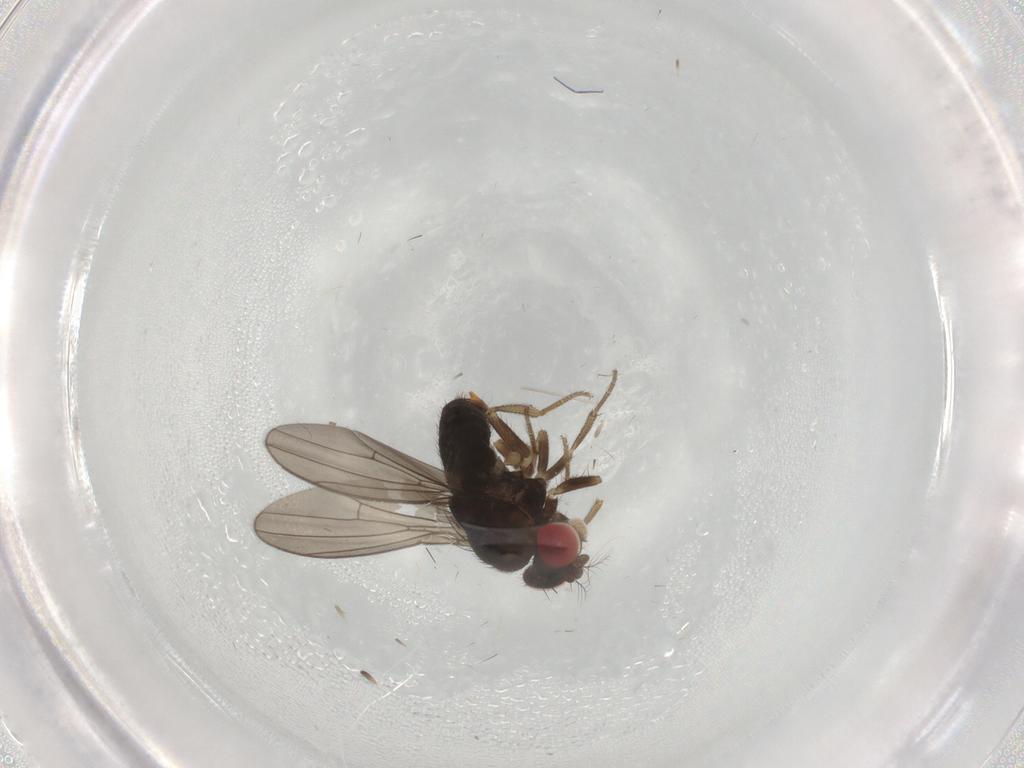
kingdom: Animalia
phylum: Arthropoda
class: Insecta
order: Diptera
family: Drosophilidae
